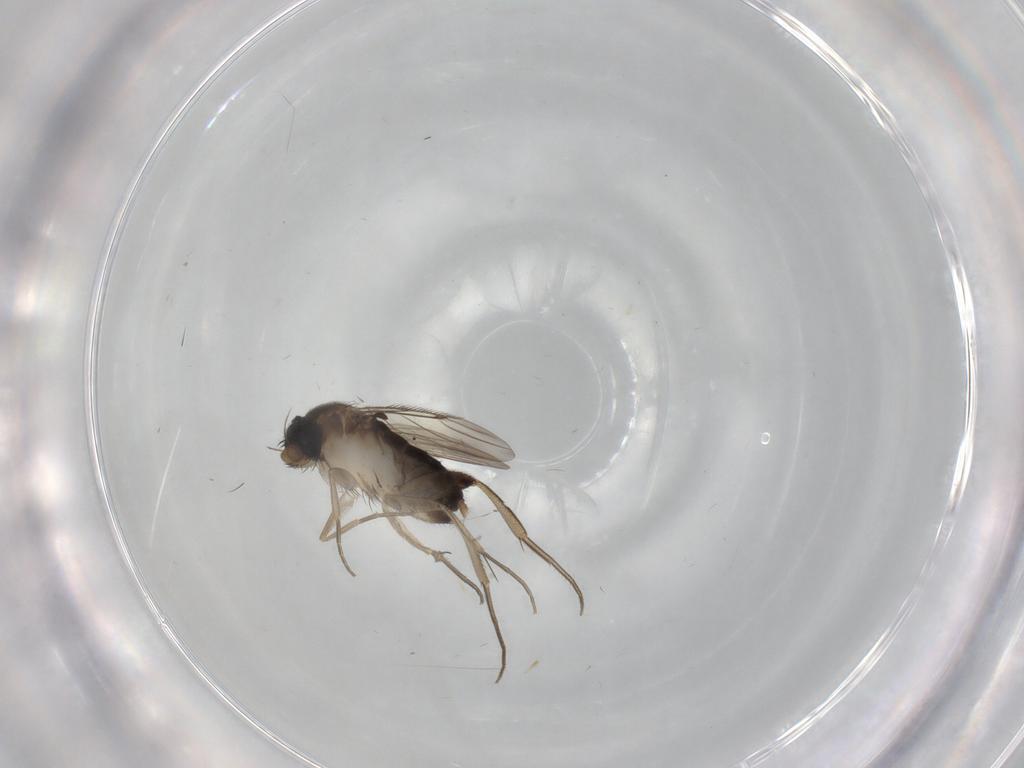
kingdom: Animalia
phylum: Arthropoda
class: Insecta
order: Diptera
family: Phoridae
